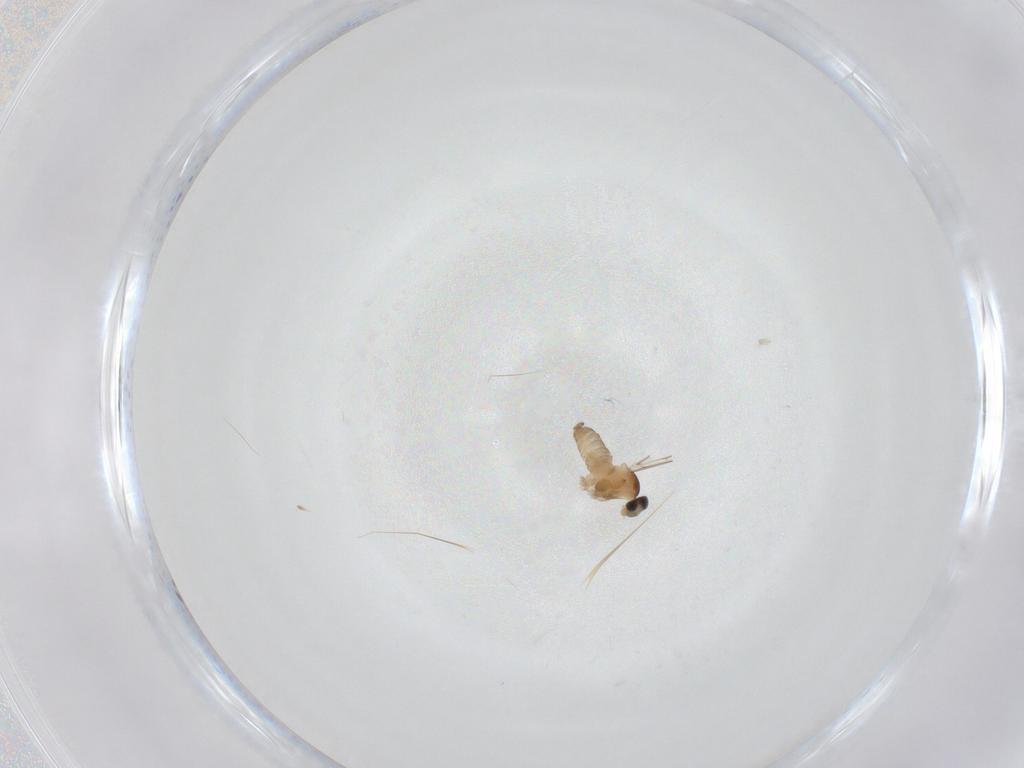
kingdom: Animalia
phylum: Arthropoda
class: Insecta
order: Diptera
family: Cecidomyiidae
